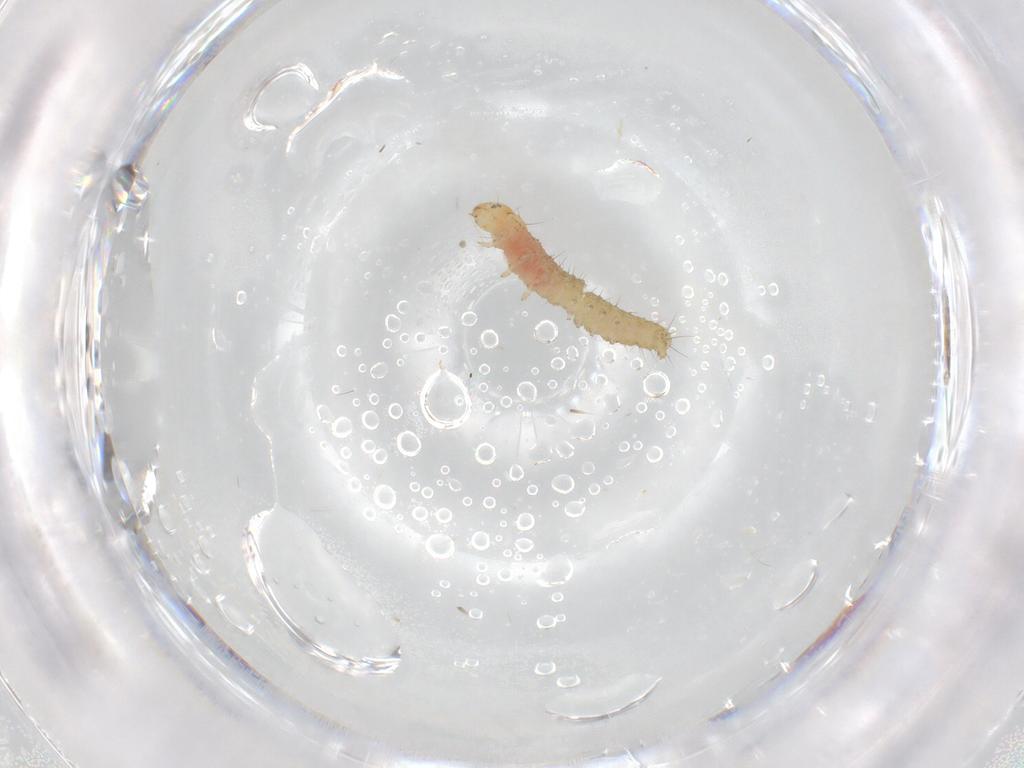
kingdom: Animalia
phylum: Arthropoda
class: Insecta
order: Lepidoptera
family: Gelechiidae
